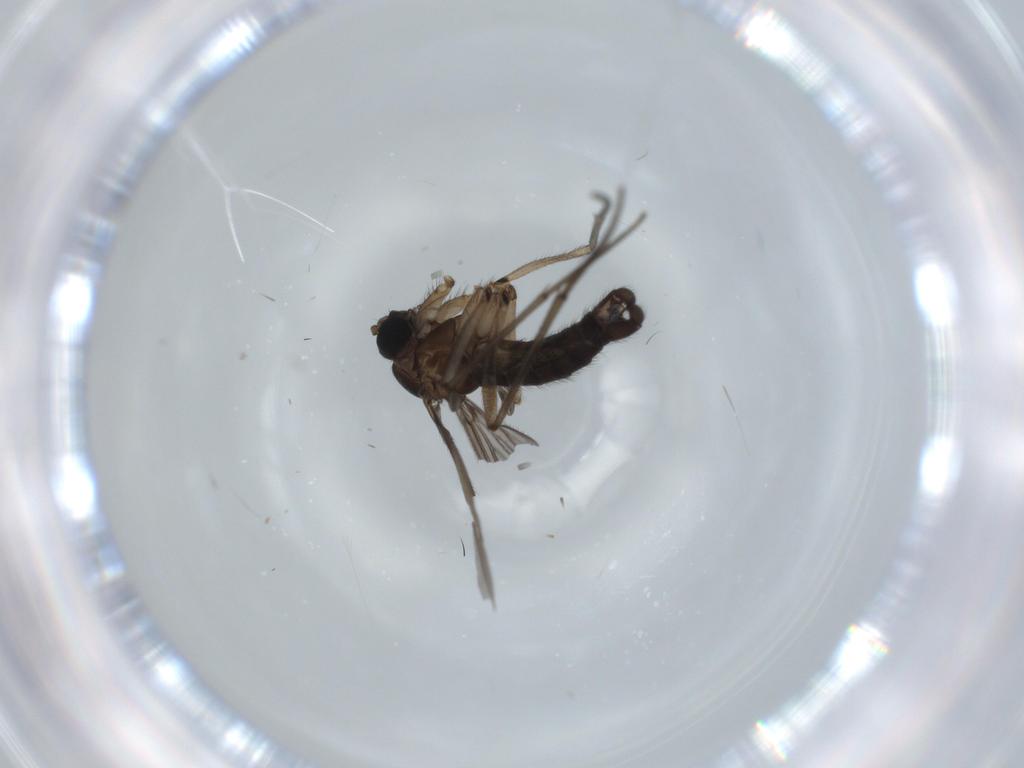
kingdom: Animalia
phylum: Arthropoda
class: Insecta
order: Diptera
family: Sciaridae
